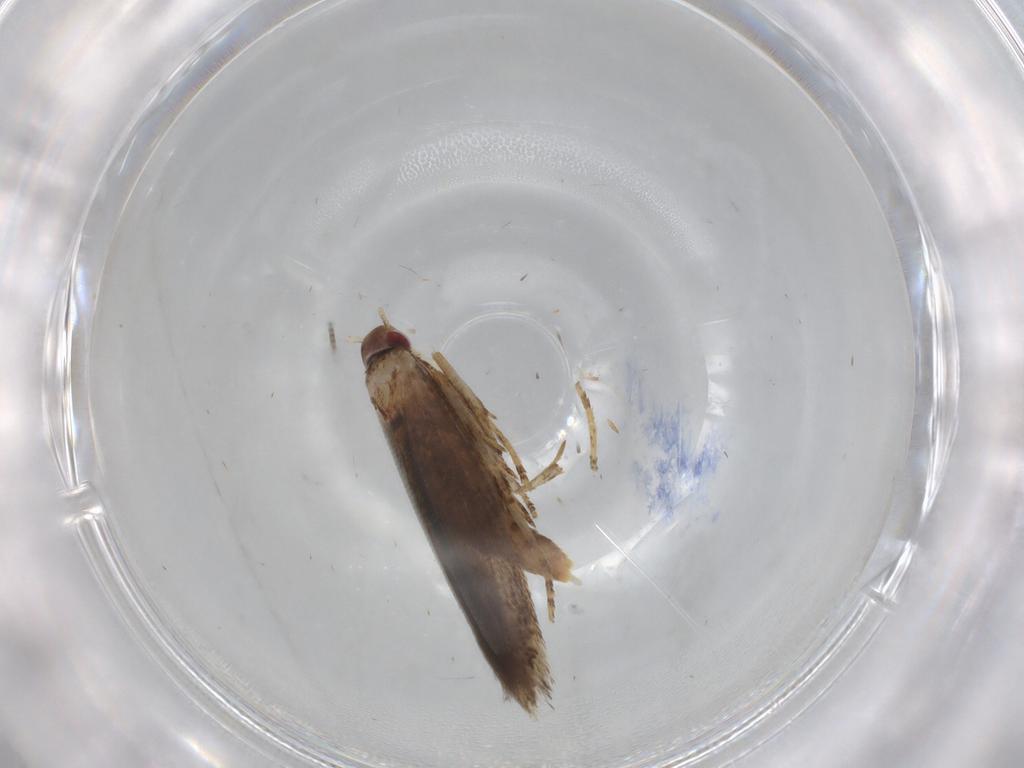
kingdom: Animalia
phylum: Arthropoda
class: Insecta
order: Lepidoptera
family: Cosmopterigidae
